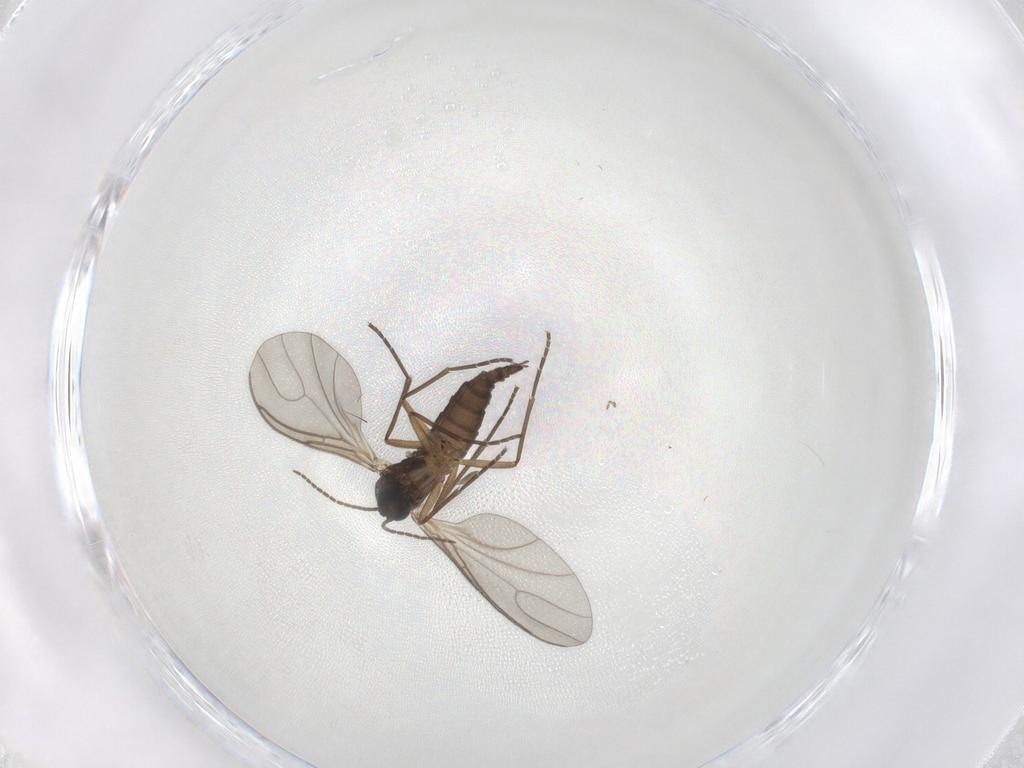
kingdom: Animalia
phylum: Arthropoda
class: Insecta
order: Diptera
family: Sciaridae
